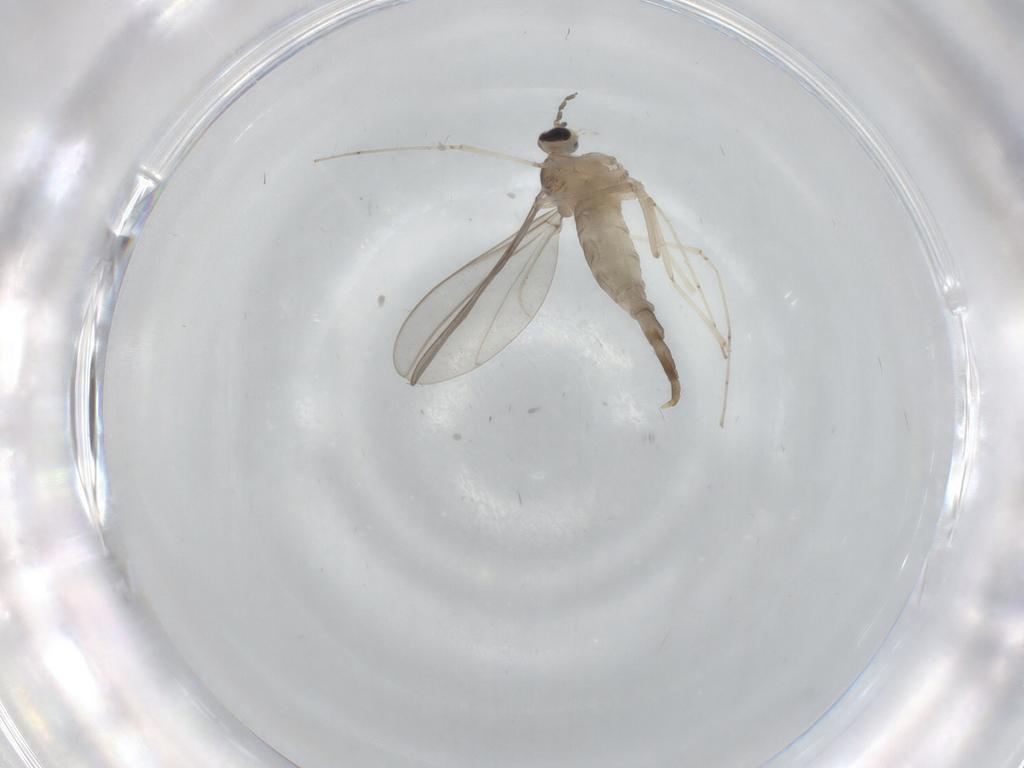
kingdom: Animalia
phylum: Arthropoda
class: Insecta
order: Diptera
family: Cecidomyiidae
